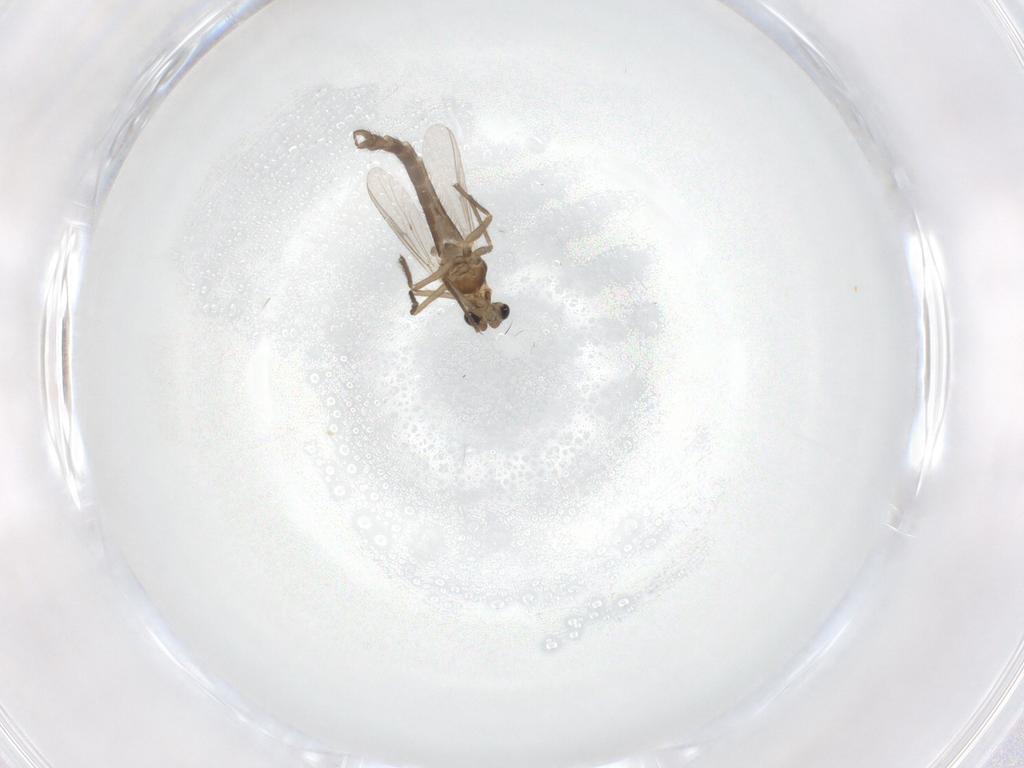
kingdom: Animalia
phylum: Arthropoda
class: Insecta
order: Diptera
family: Chironomidae
